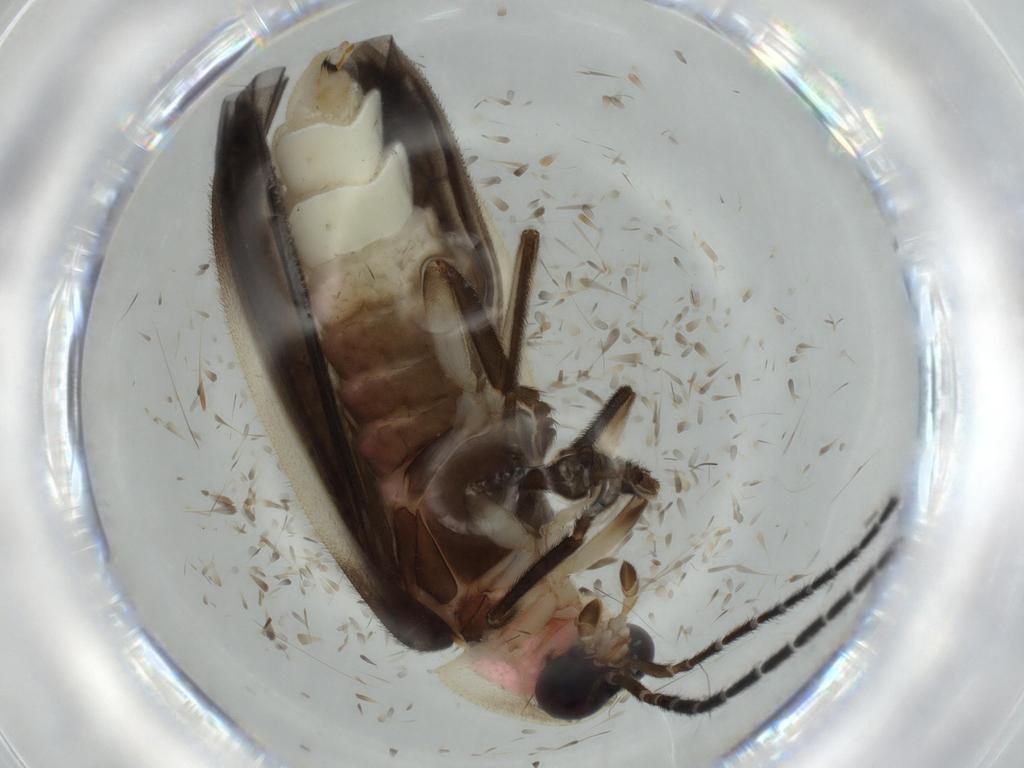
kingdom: Animalia
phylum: Arthropoda
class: Insecta
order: Coleoptera
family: Lampyridae
